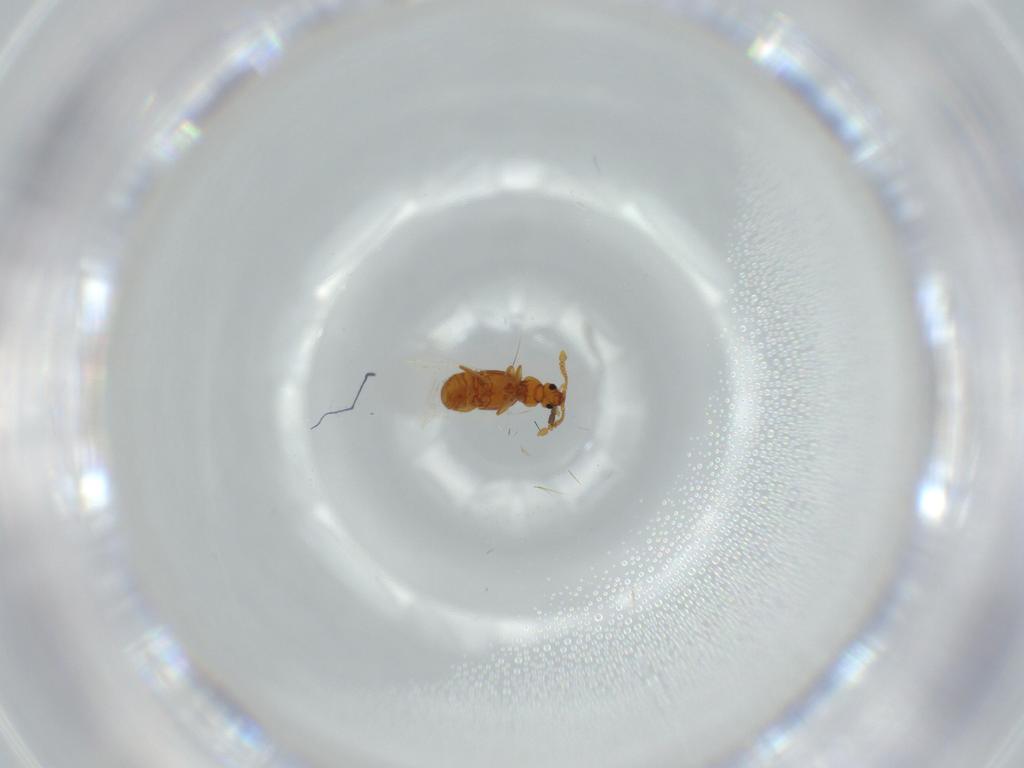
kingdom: Animalia
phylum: Arthropoda
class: Insecta
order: Coleoptera
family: Staphylinidae
